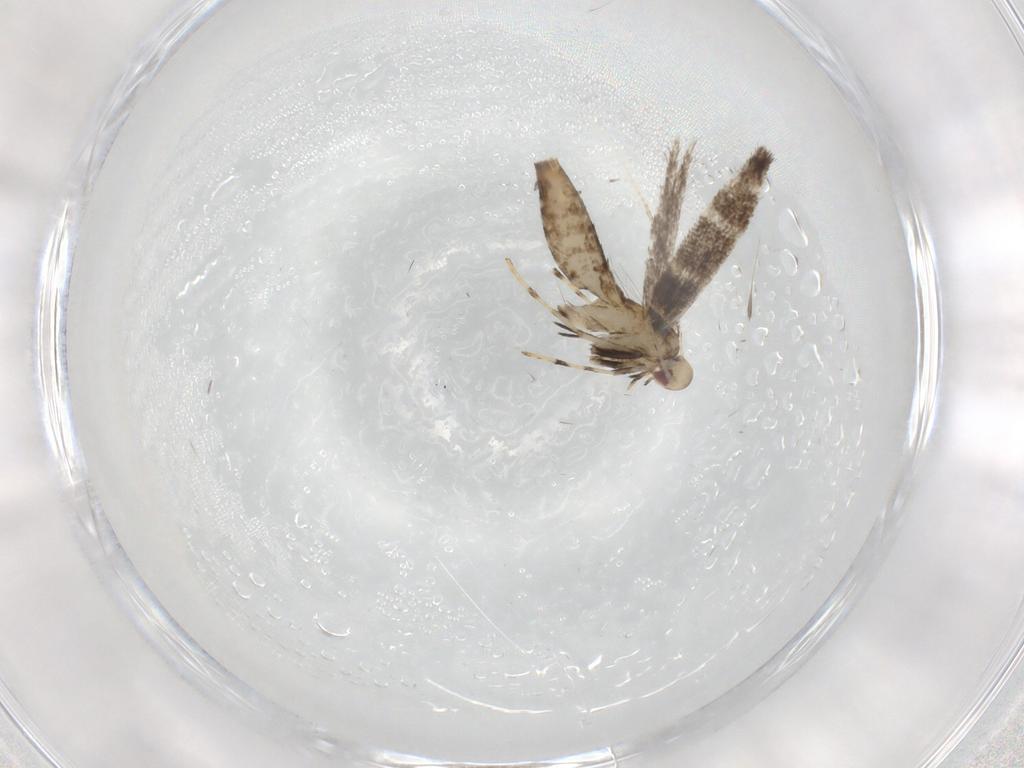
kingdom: Animalia
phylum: Arthropoda
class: Insecta
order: Lepidoptera
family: Gracillariidae
